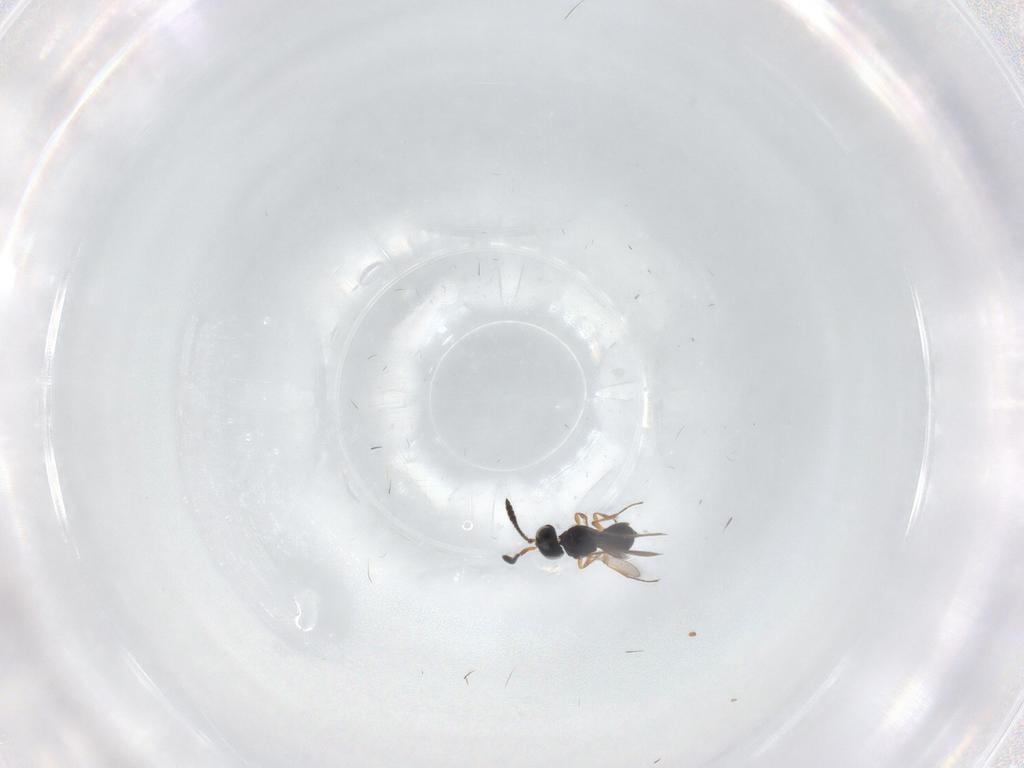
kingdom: Animalia
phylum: Arthropoda
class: Insecta
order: Hymenoptera
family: Scelionidae
